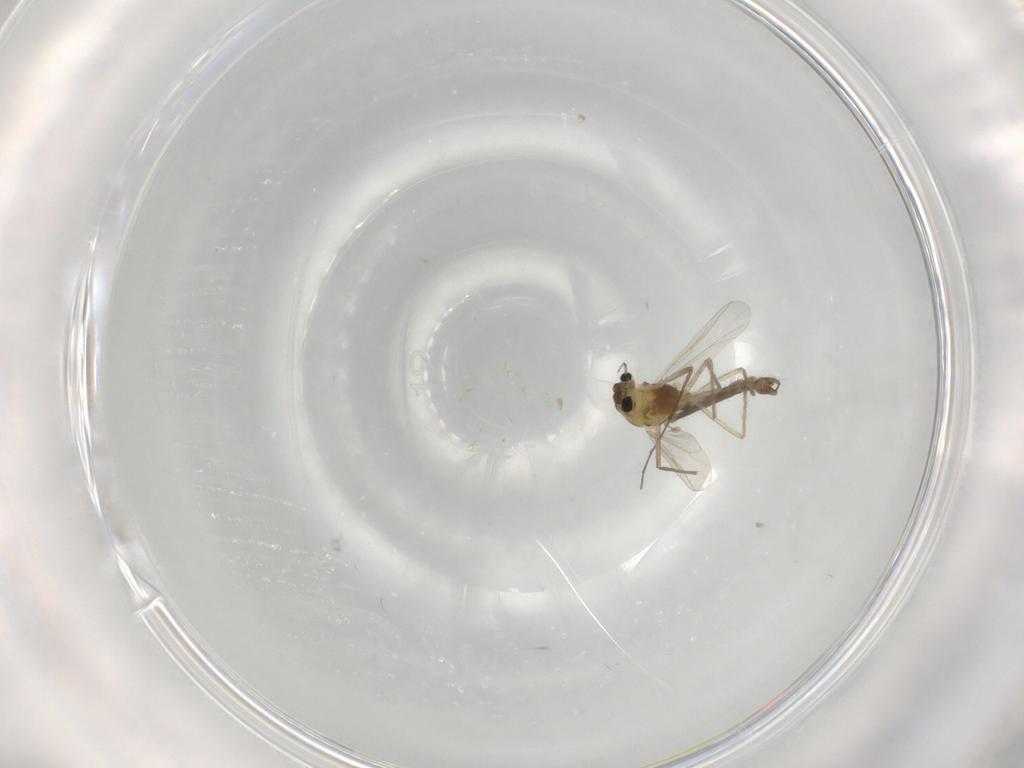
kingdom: Animalia
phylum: Arthropoda
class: Insecta
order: Diptera
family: Chironomidae
